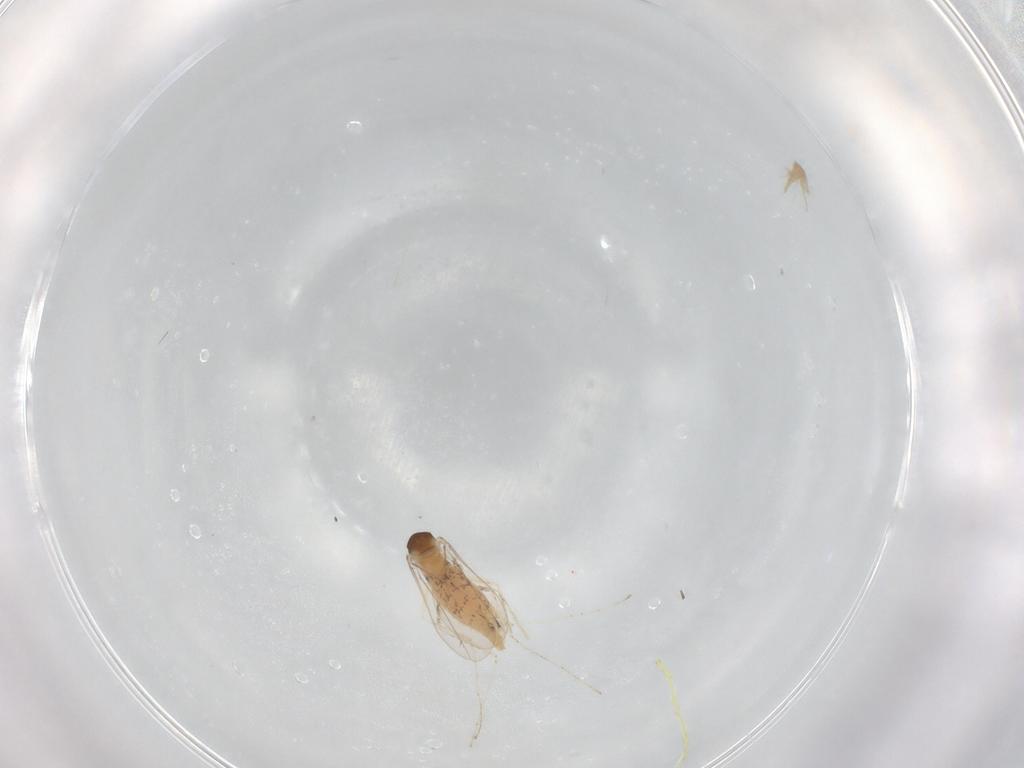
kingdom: Animalia
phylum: Arthropoda
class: Insecta
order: Diptera
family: Cecidomyiidae
